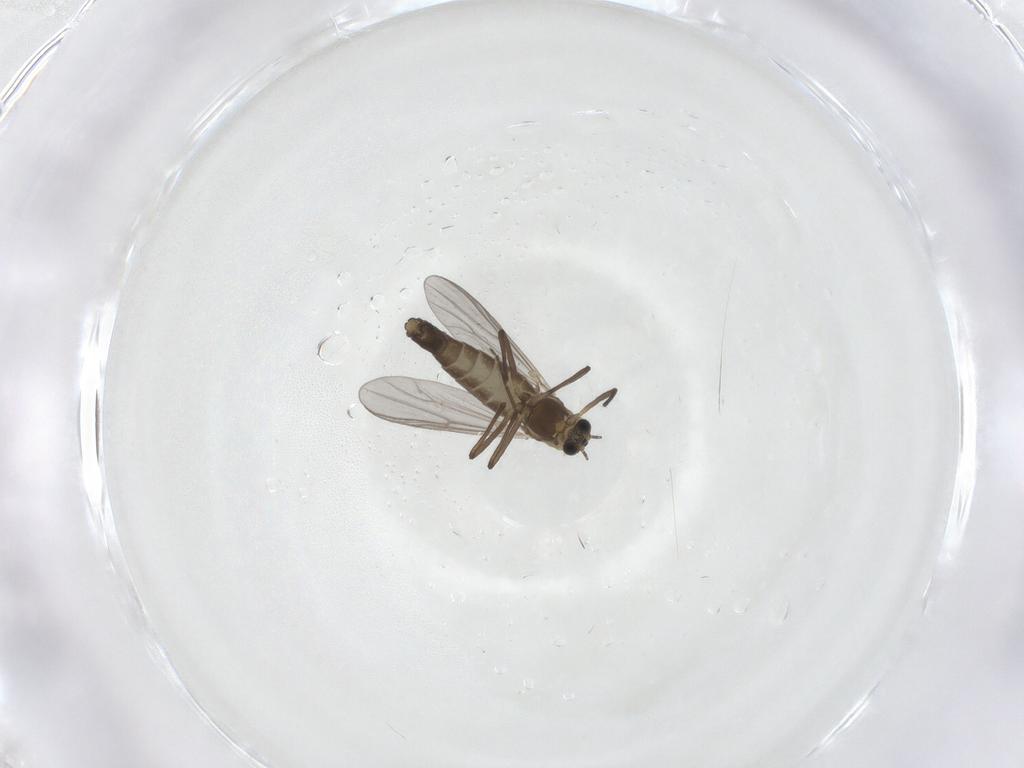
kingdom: Animalia
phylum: Arthropoda
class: Insecta
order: Diptera
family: Chironomidae
